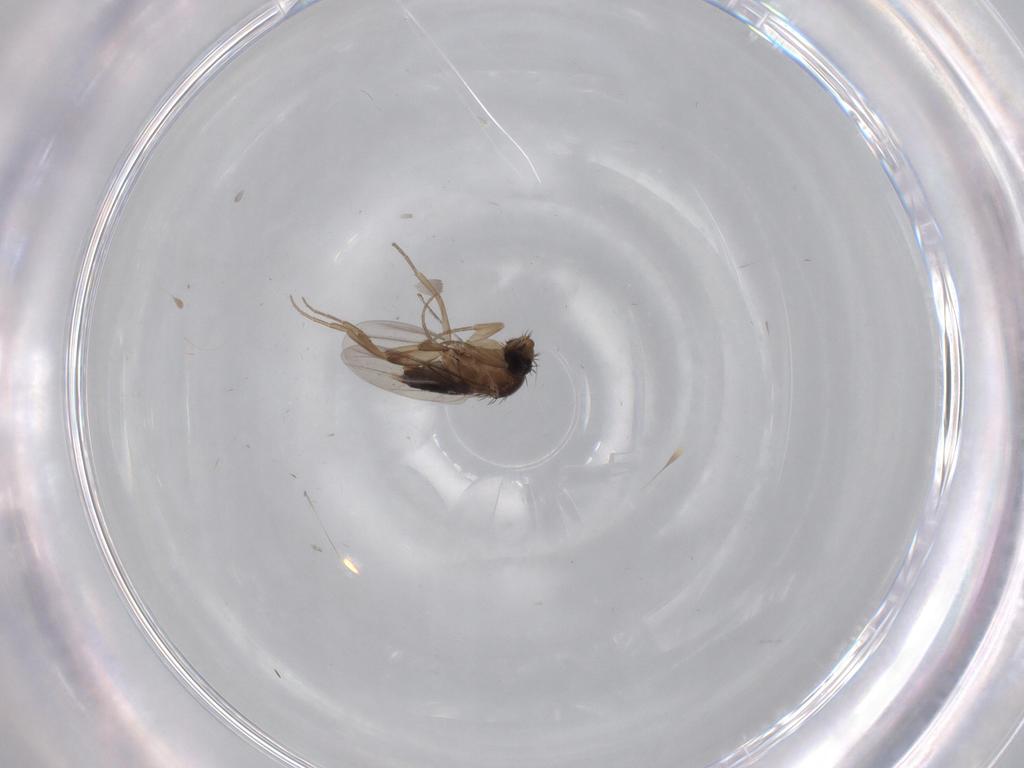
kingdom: Animalia
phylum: Arthropoda
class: Insecta
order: Diptera
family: Phoridae
